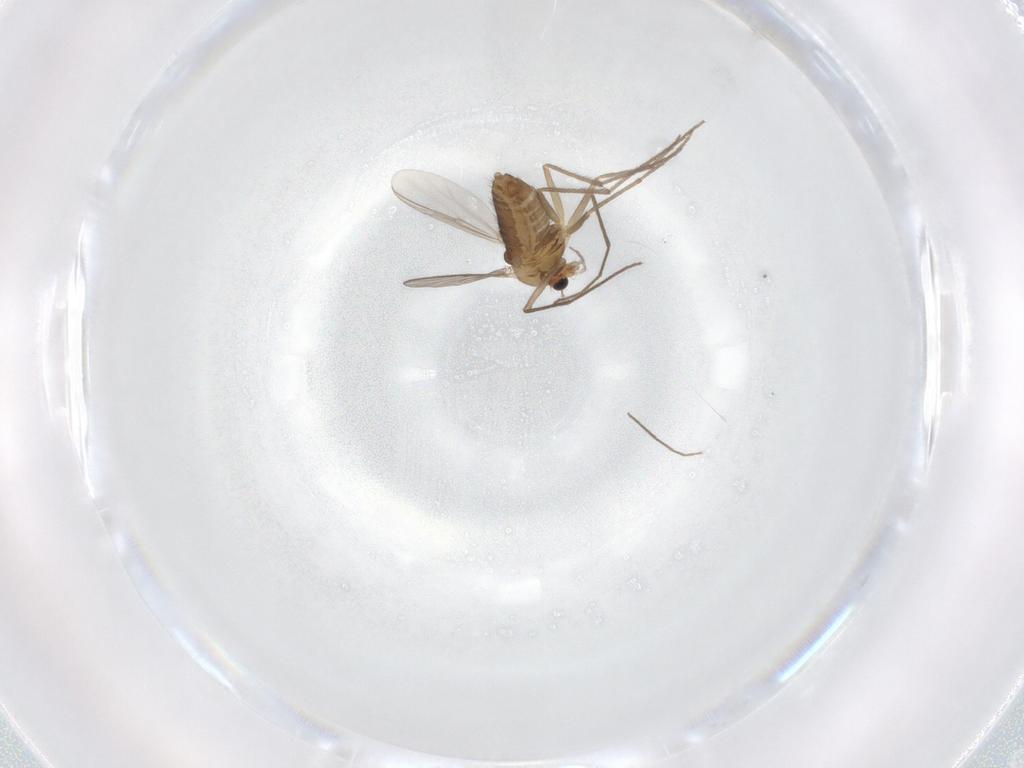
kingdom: Animalia
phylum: Arthropoda
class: Insecta
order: Diptera
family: Chironomidae
